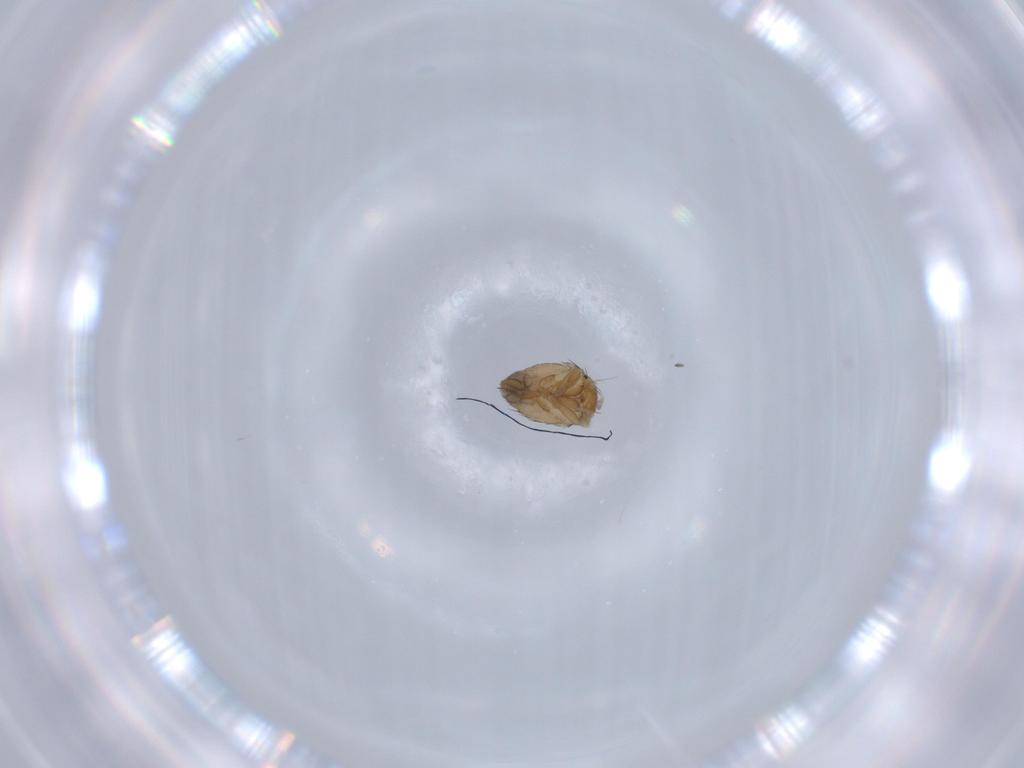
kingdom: Animalia
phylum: Arthropoda
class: Insecta
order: Diptera
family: Phoridae
